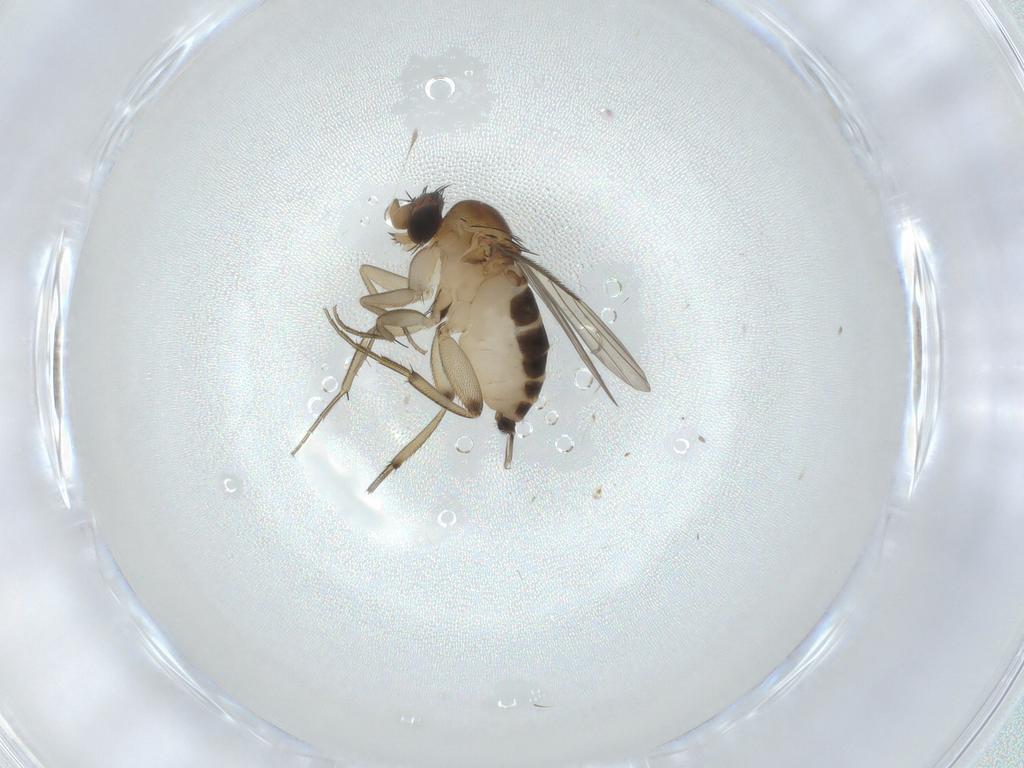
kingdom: Animalia
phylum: Arthropoda
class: Insecta
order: Diptera
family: Phoridae
